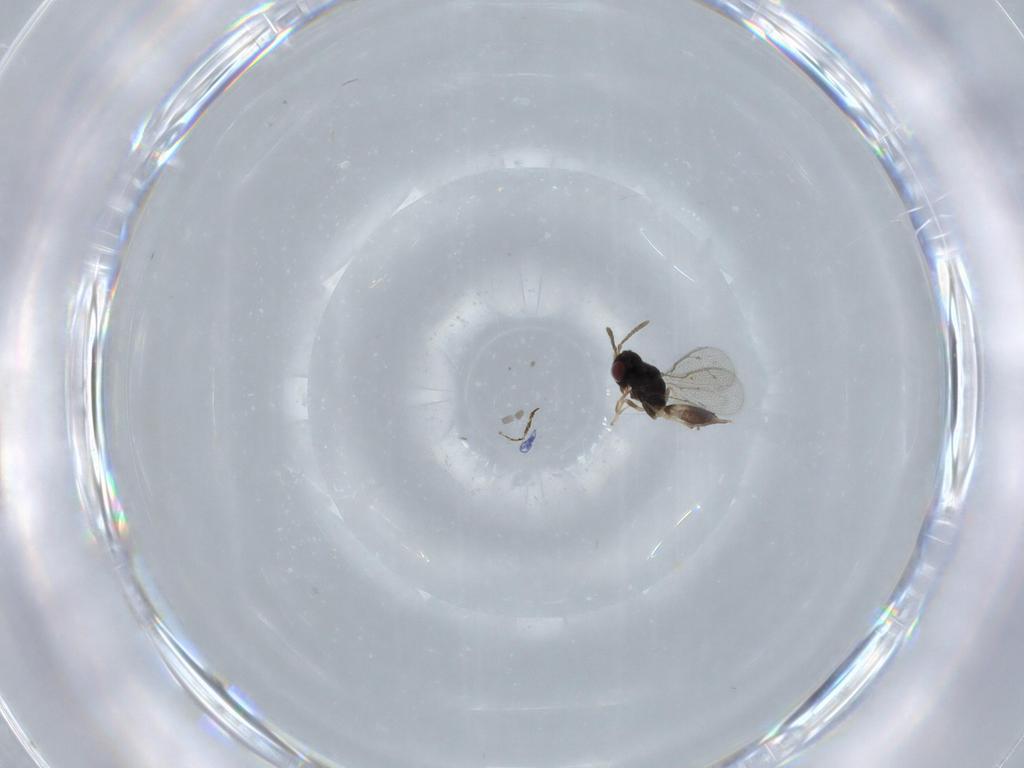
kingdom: Animalia
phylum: Arthropoda
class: Insecta
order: Hymenoptera
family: Pteromalidae
